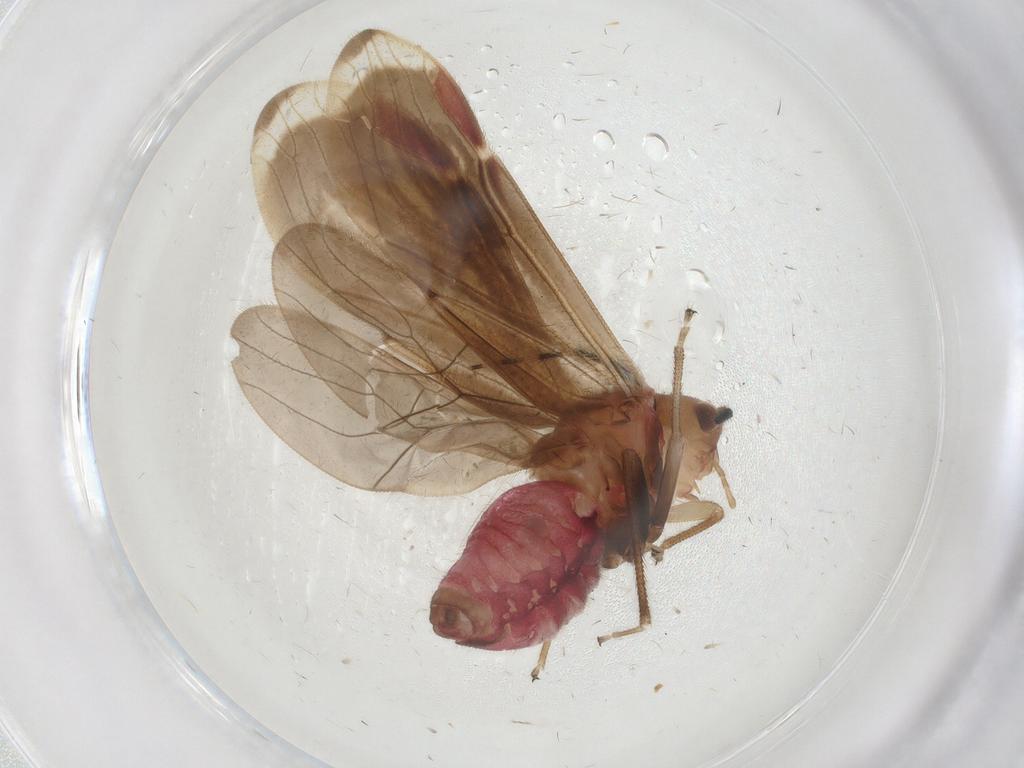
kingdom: Animalia
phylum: Arthropoda
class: Insecta
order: Psocodea
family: Amphipsocidae
